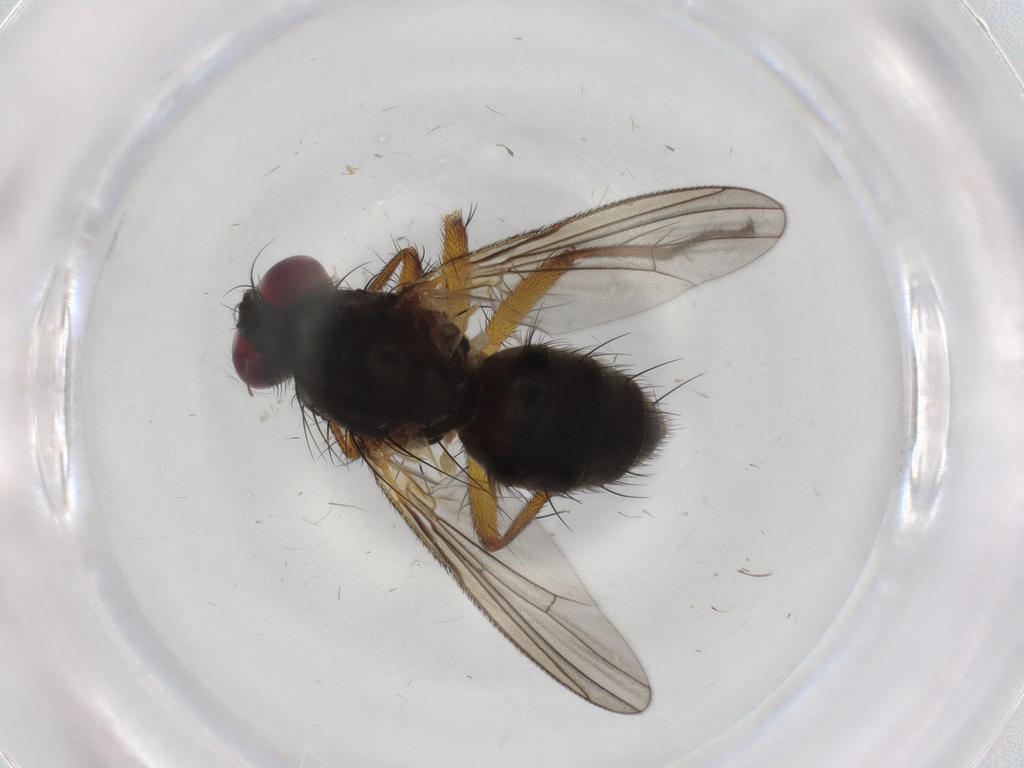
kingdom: Animalia
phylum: Arthropoda
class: Insecta
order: Diptera
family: Muscidae
